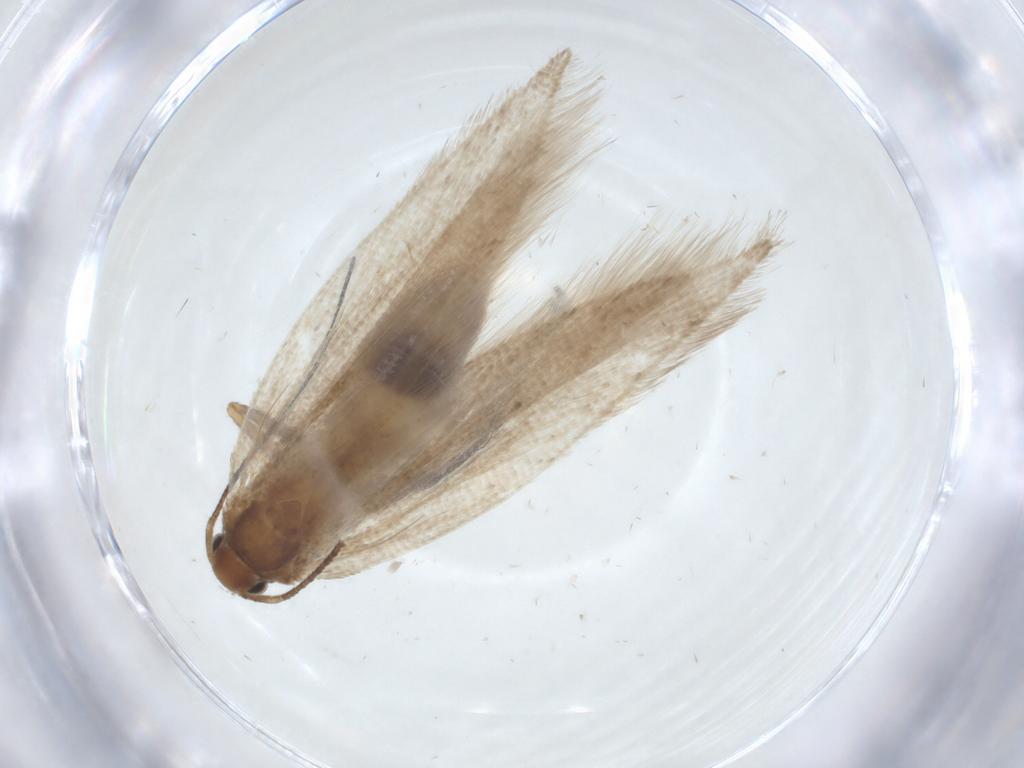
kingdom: Animalia
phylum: Arthropoda
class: Insecta
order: Lepidoptera
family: Gelechiidae
